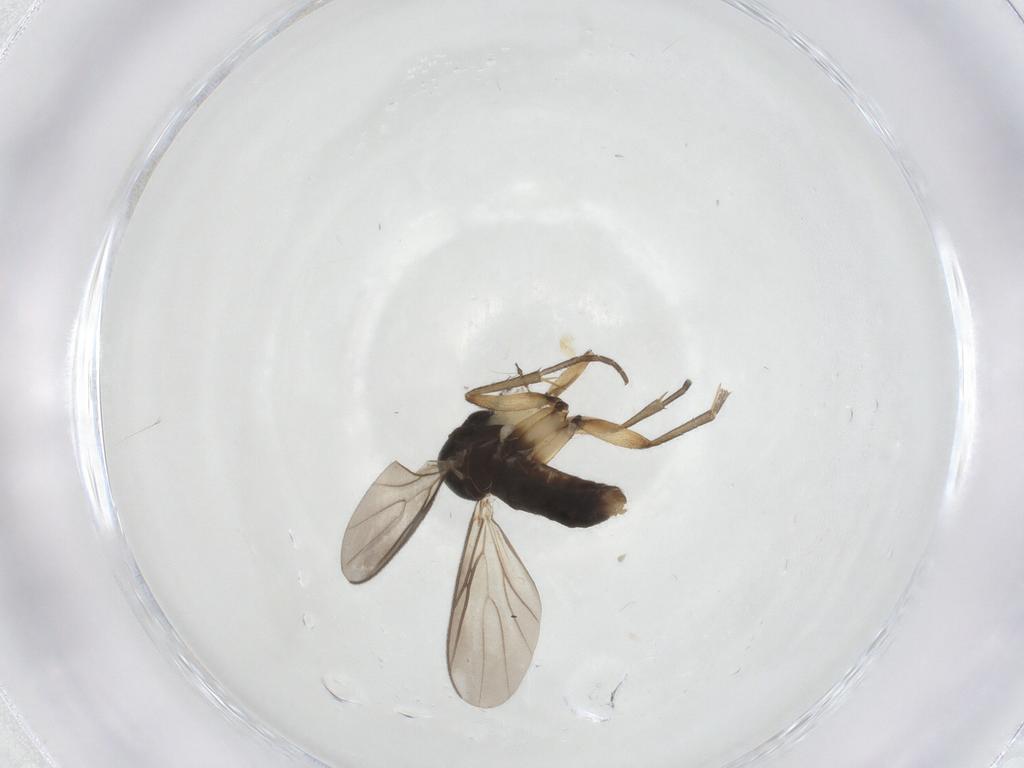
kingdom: Animalia
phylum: Arthropoda
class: Insecta
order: Diptera
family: Mycetophilidae
